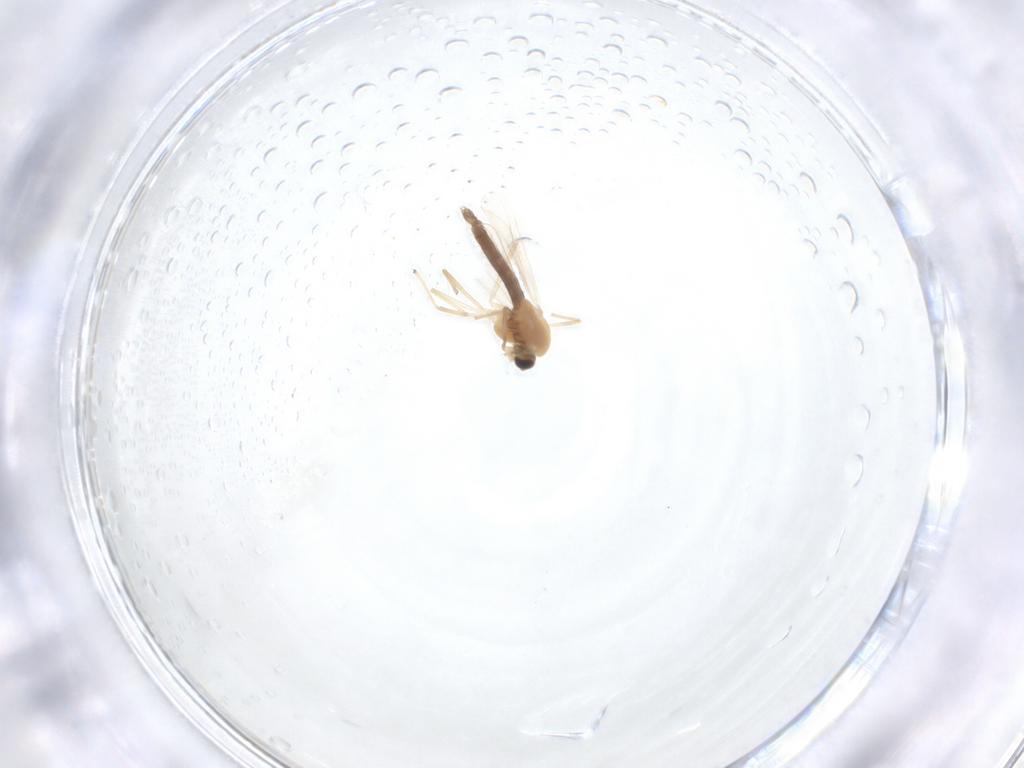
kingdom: Animalia
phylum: Arthropoda
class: Insecta
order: Diptera
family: Chironomidae
